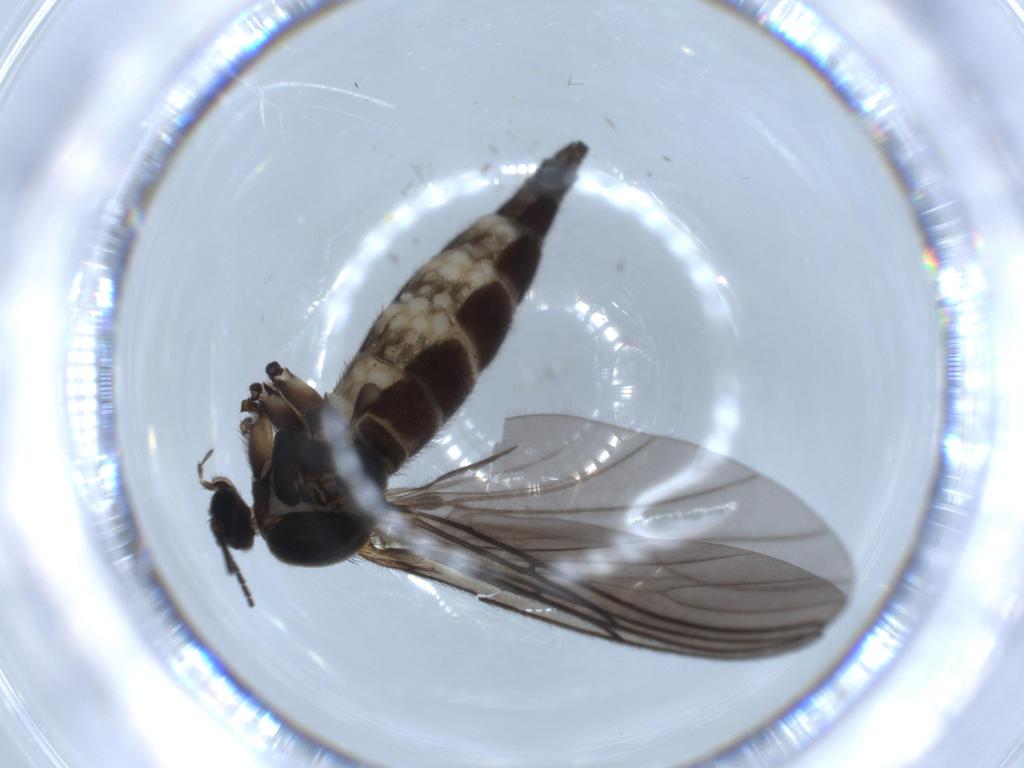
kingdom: Animalia
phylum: Arthropoda
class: Insecta
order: Diptera
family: Sciaridae
